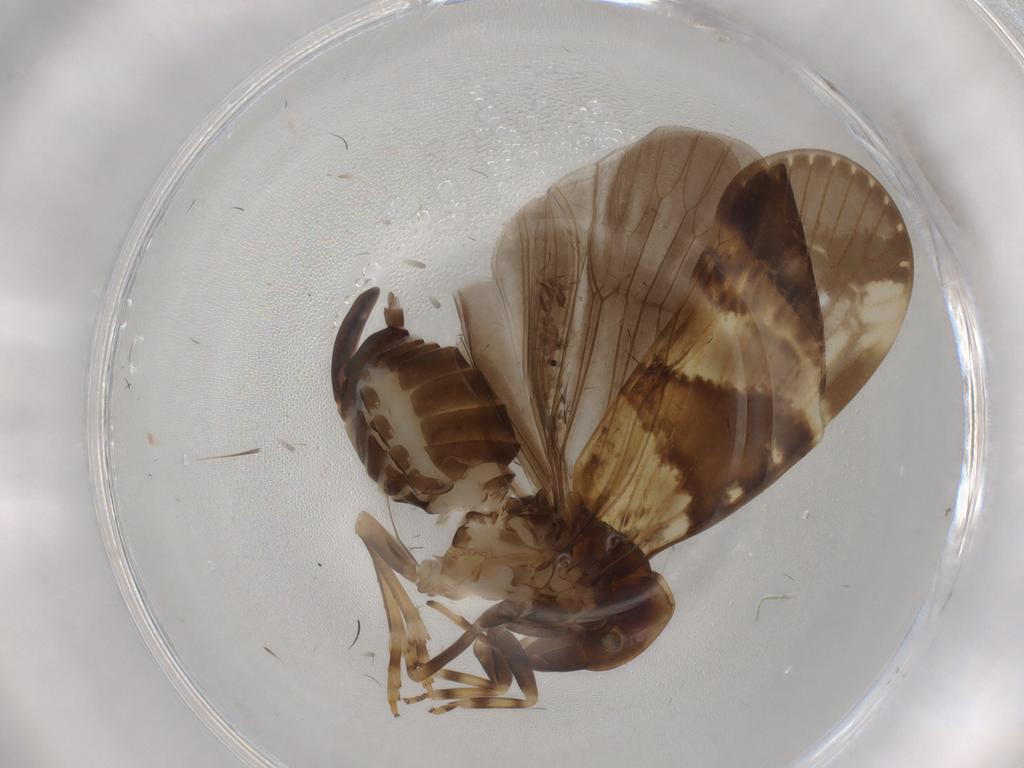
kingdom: Animalia
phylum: Arthropoda
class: Insecta
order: Hemiptera
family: Cixiidae
